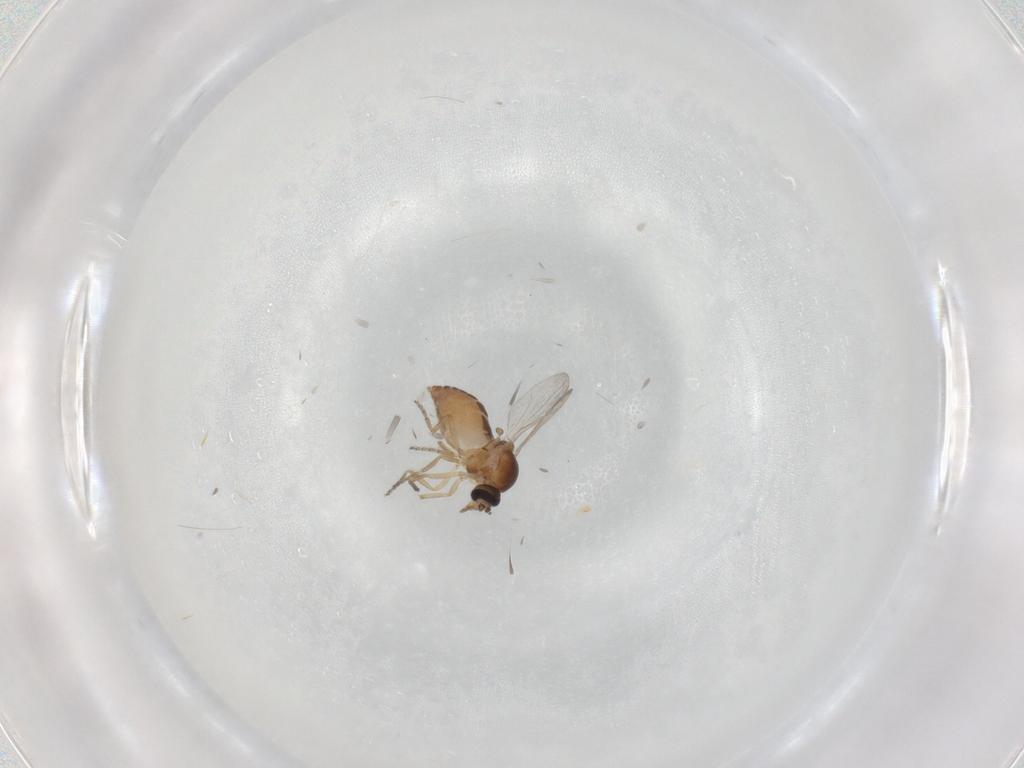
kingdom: Animalia
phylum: Arthropoda
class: Insecta
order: Diptera
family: Ceratopogonidae
